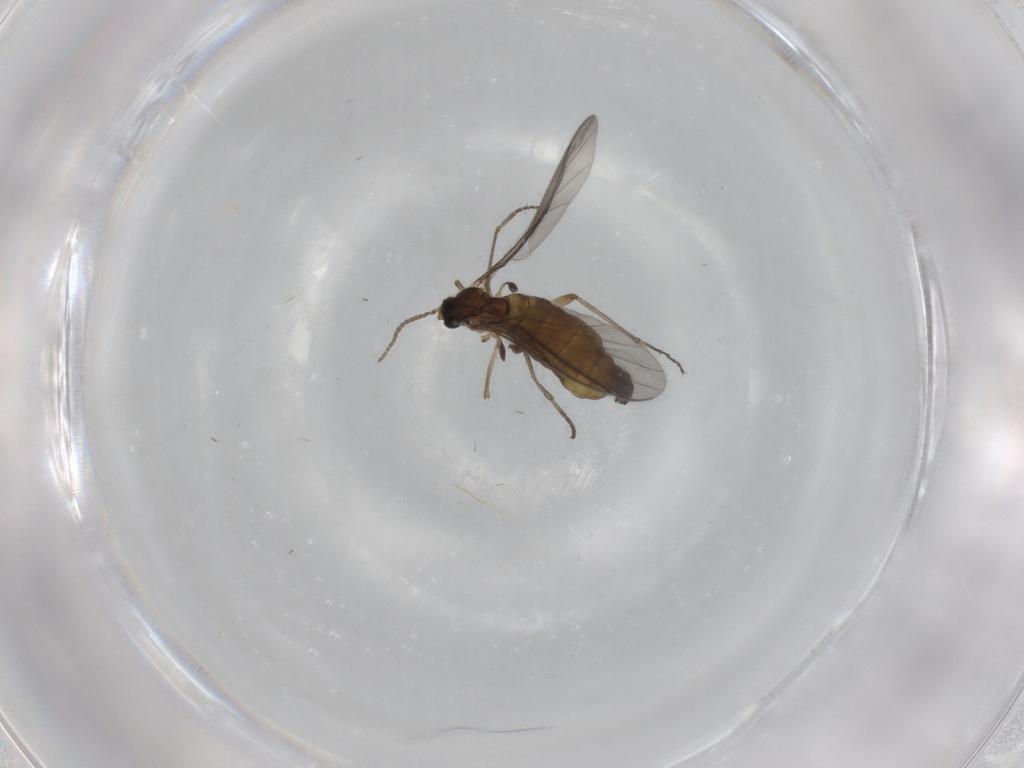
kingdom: Animalia
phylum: Arthropoda
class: Insecta
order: Diptera
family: Sciaridae
